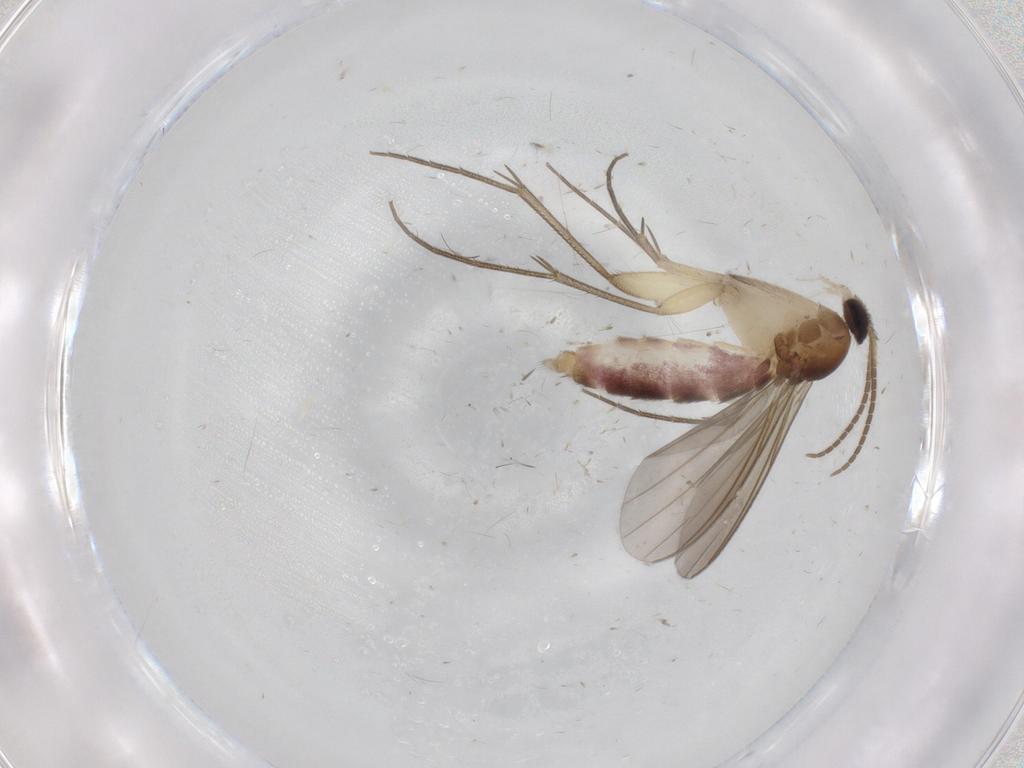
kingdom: Animalia
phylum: Arthropoda
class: Insecta
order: Diptera
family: Mycetophilidae
